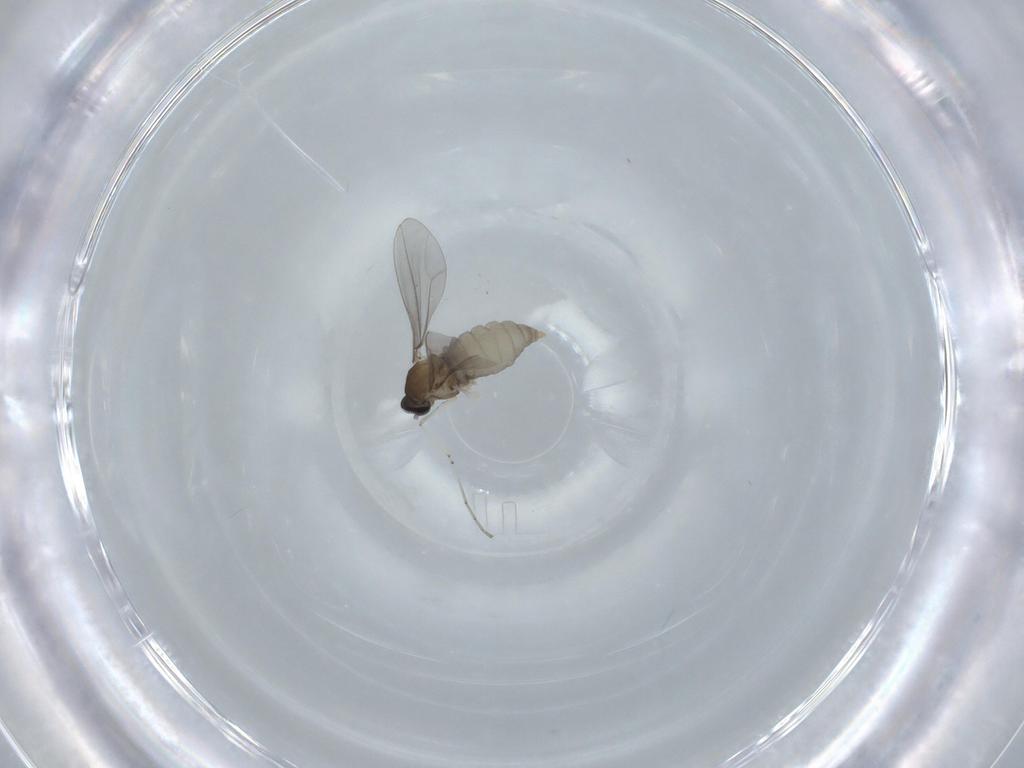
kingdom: Animalia
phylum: Arthropoda
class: Insecta
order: Diptera
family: Cecidomyiidae
